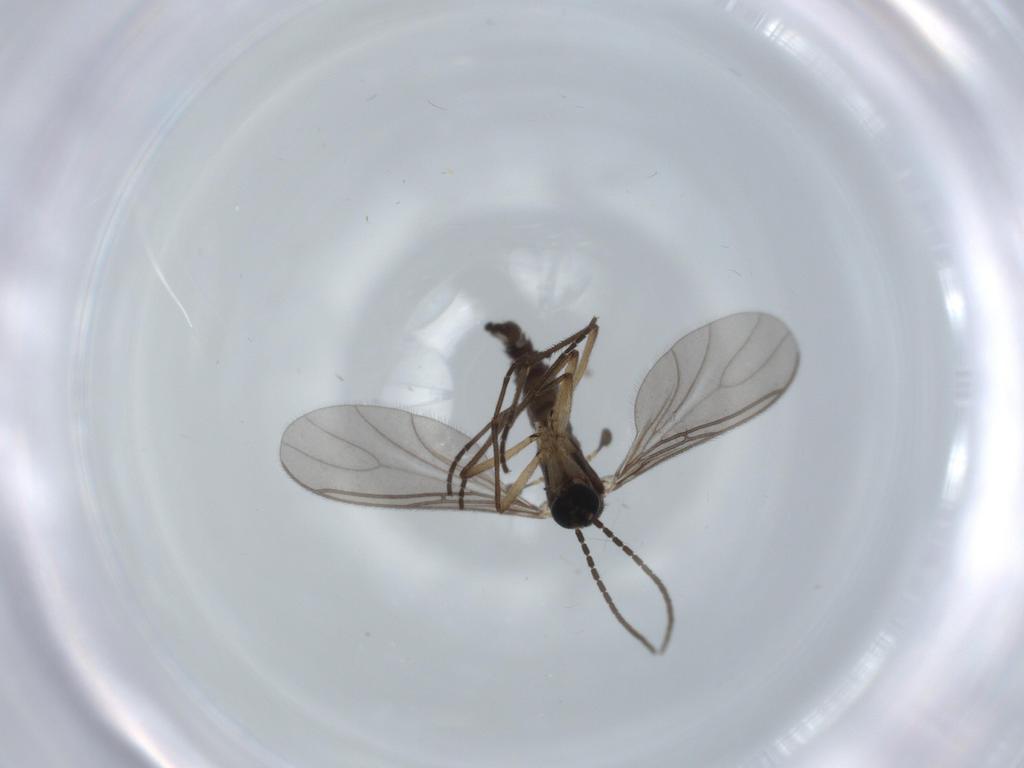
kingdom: Animalia
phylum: Arthropoda
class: Insecta
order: Diptera
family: Sciaridae
